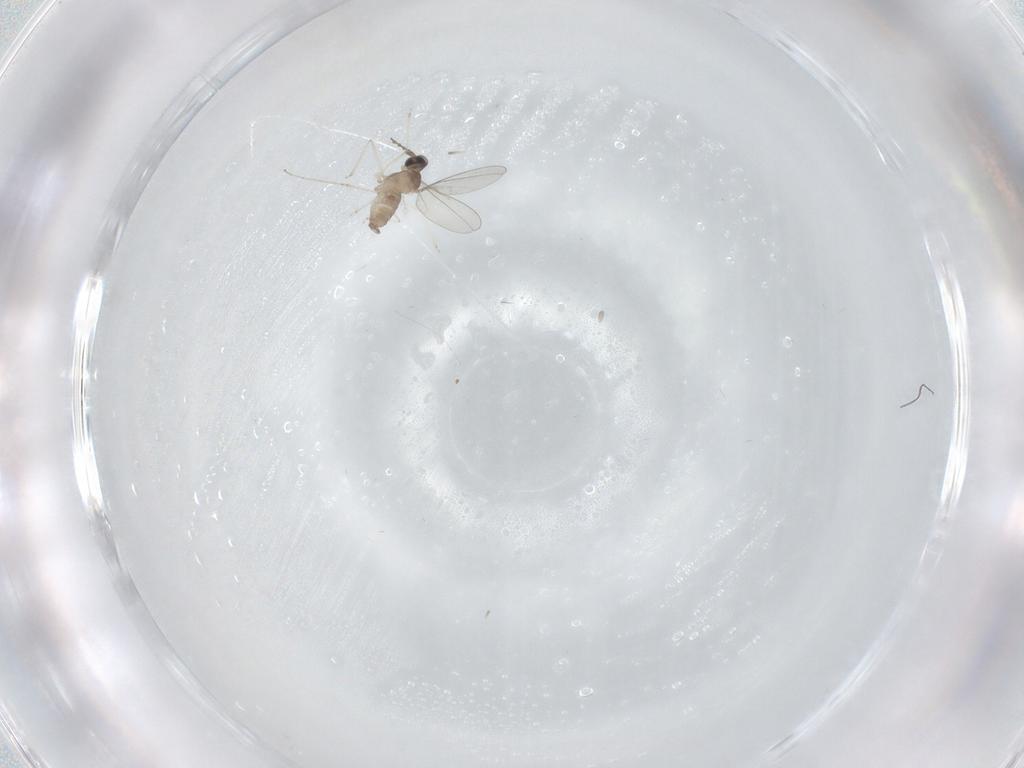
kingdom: Animalia
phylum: Arthropoda
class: Insecta
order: Diptera
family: Cecidomyiidae
